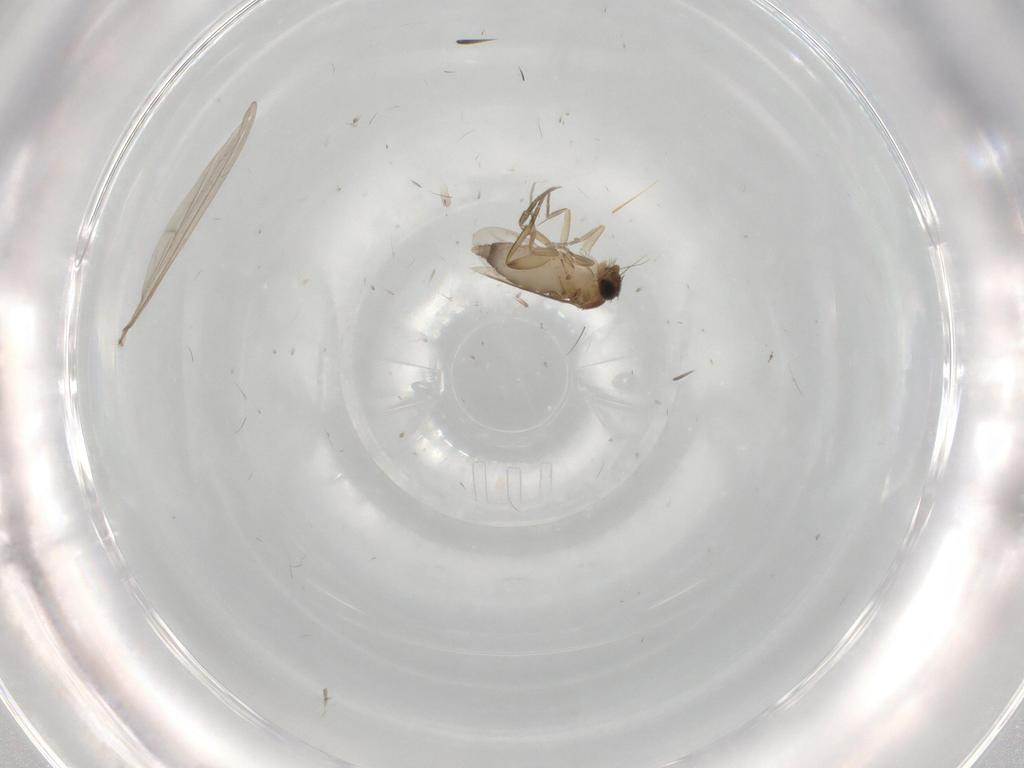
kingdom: Animalia
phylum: Arthropoda
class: Insecta
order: Diptera
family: Phoridae
